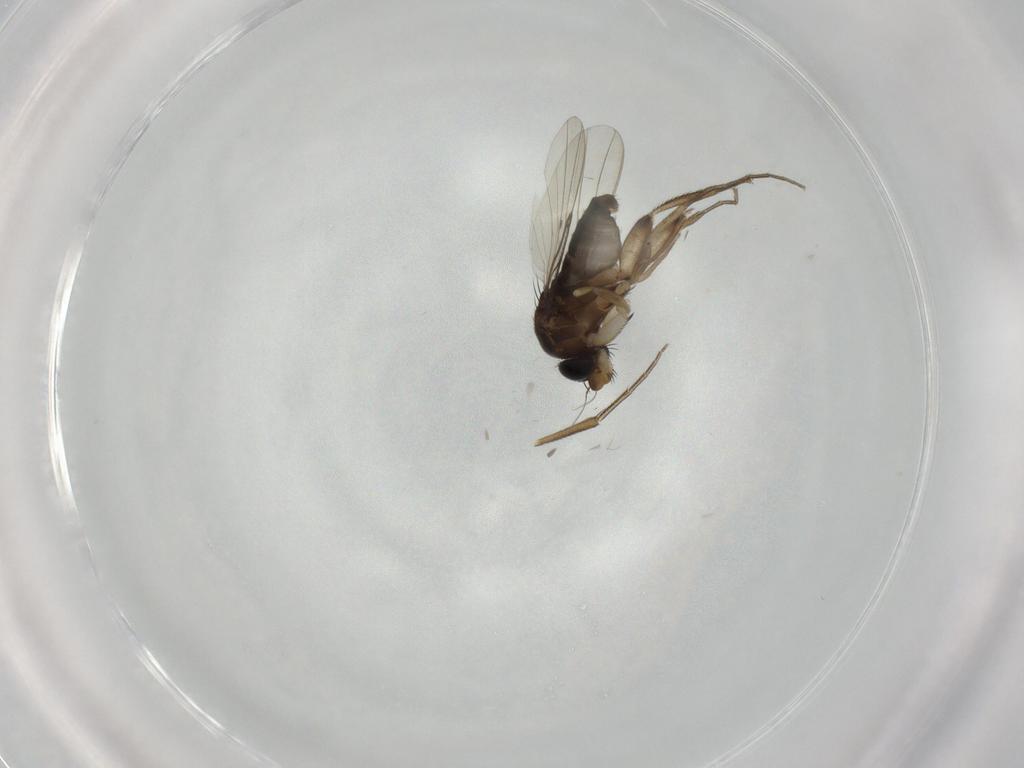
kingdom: Animalia
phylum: Arthropoda
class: Insecta
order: Diptera
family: Phoridae
